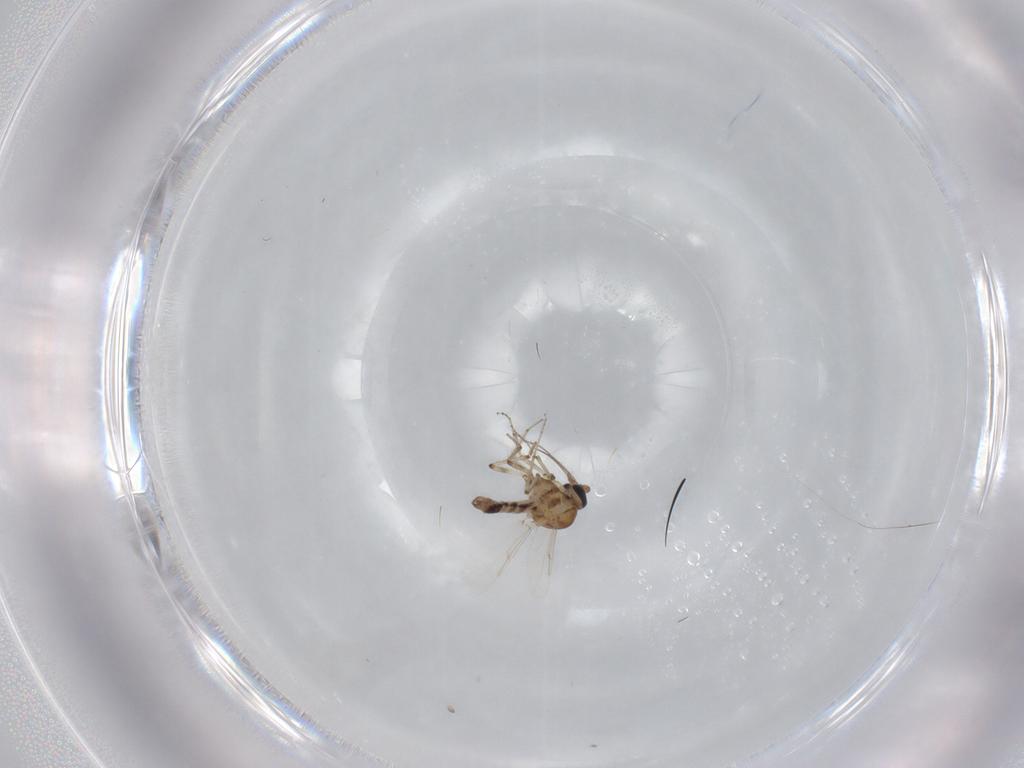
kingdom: Animalia
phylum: Arthropoda
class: Insecta
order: Diptera
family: Ceratopogonidae
